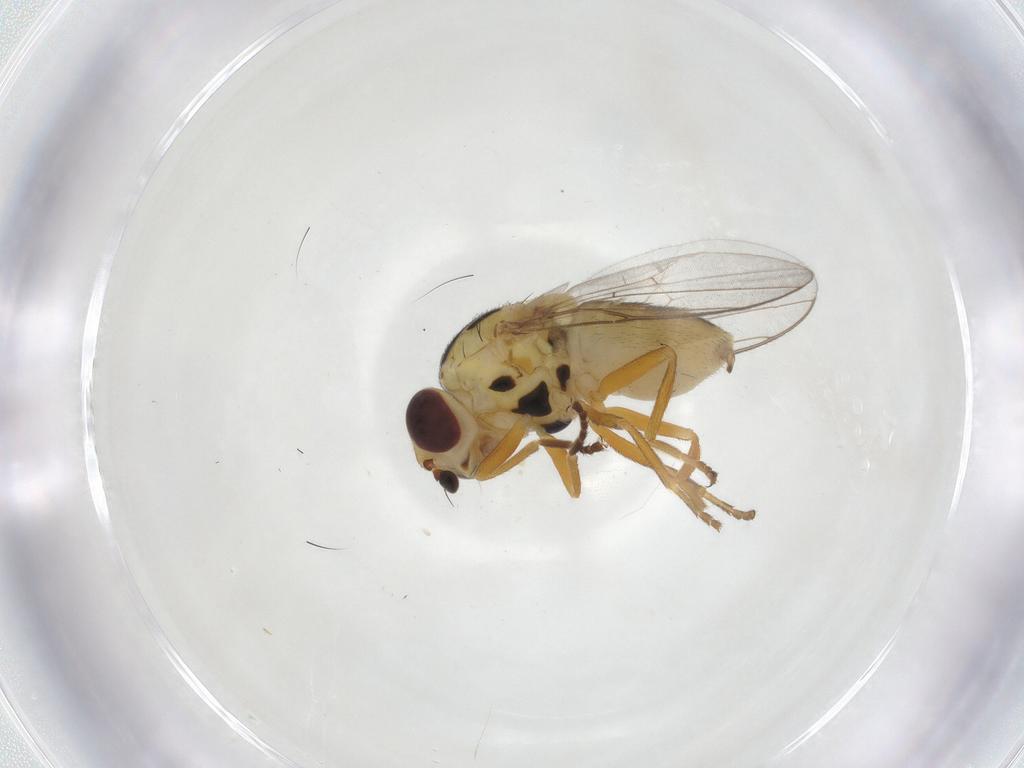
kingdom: Animalia
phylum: Arthropoda
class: Insecta
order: Diptera
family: Chloropidae
